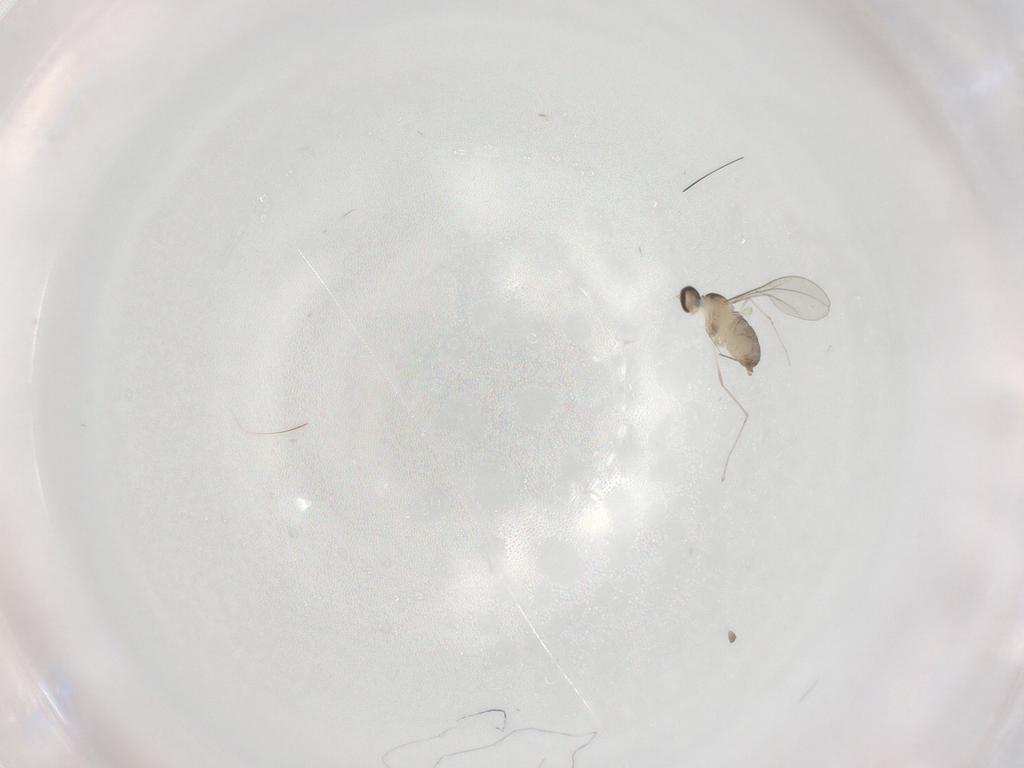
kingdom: Animalia
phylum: Arthropoda
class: Insecta
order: Diptera
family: Cecidomyiidae
